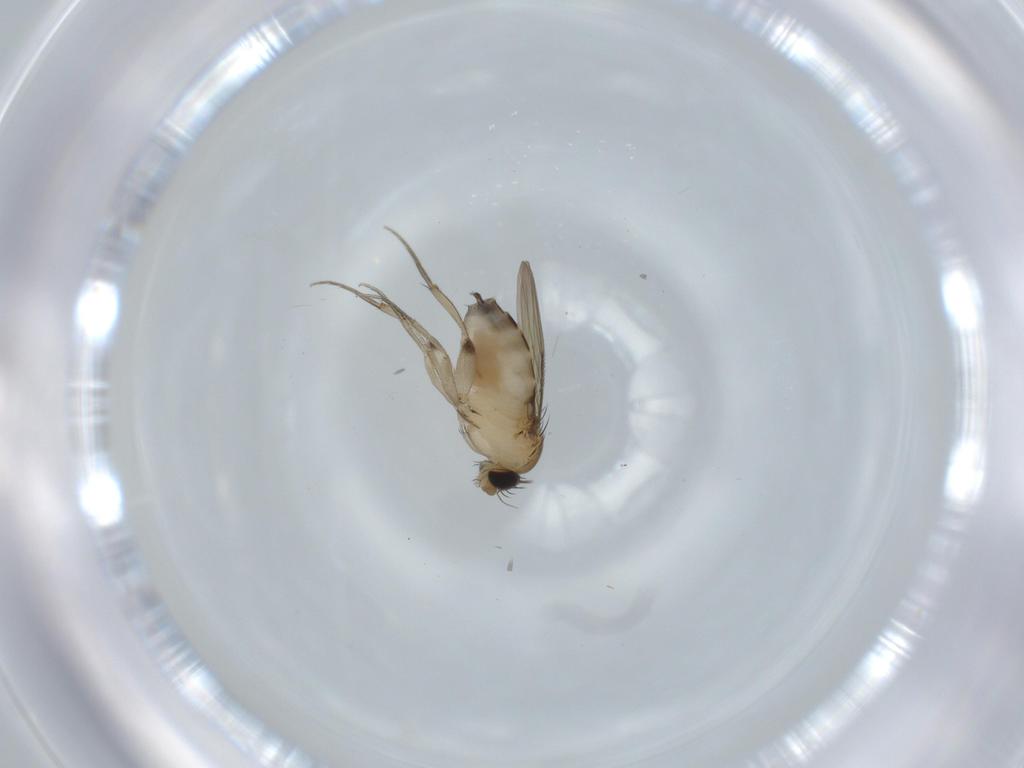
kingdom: Animalia
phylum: Arthropoda
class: Insecta
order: Diptera
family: Phoridae
